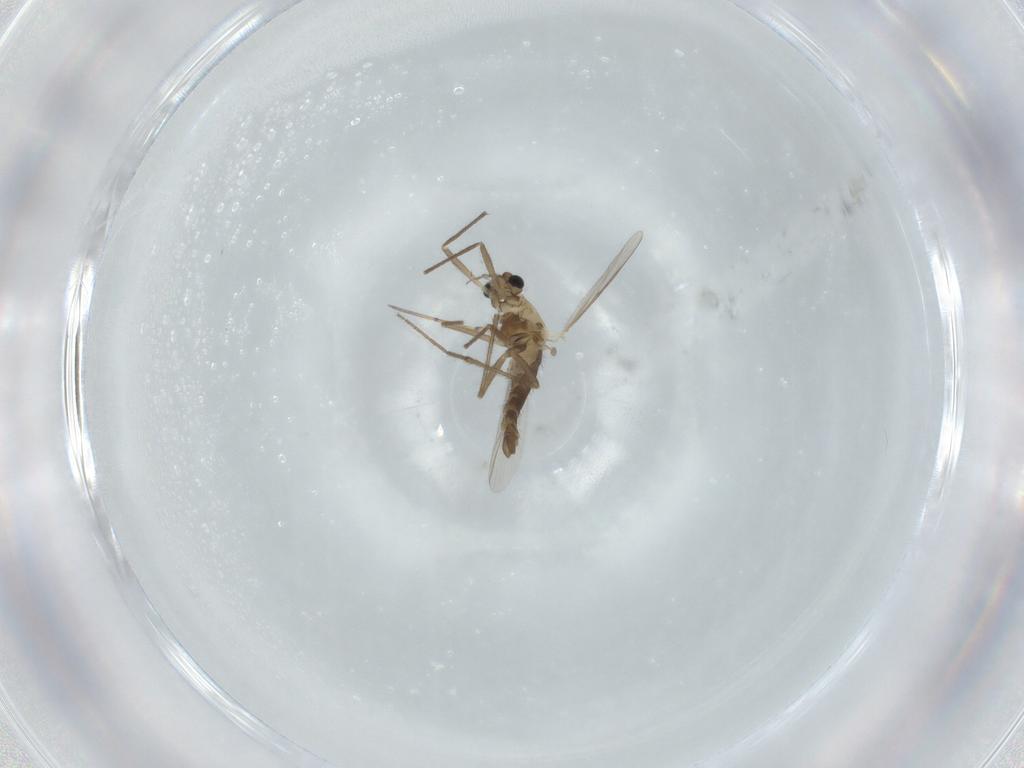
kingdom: Animalia
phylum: Arthropoda
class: Insecta
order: Diptera
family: Chironomidae
